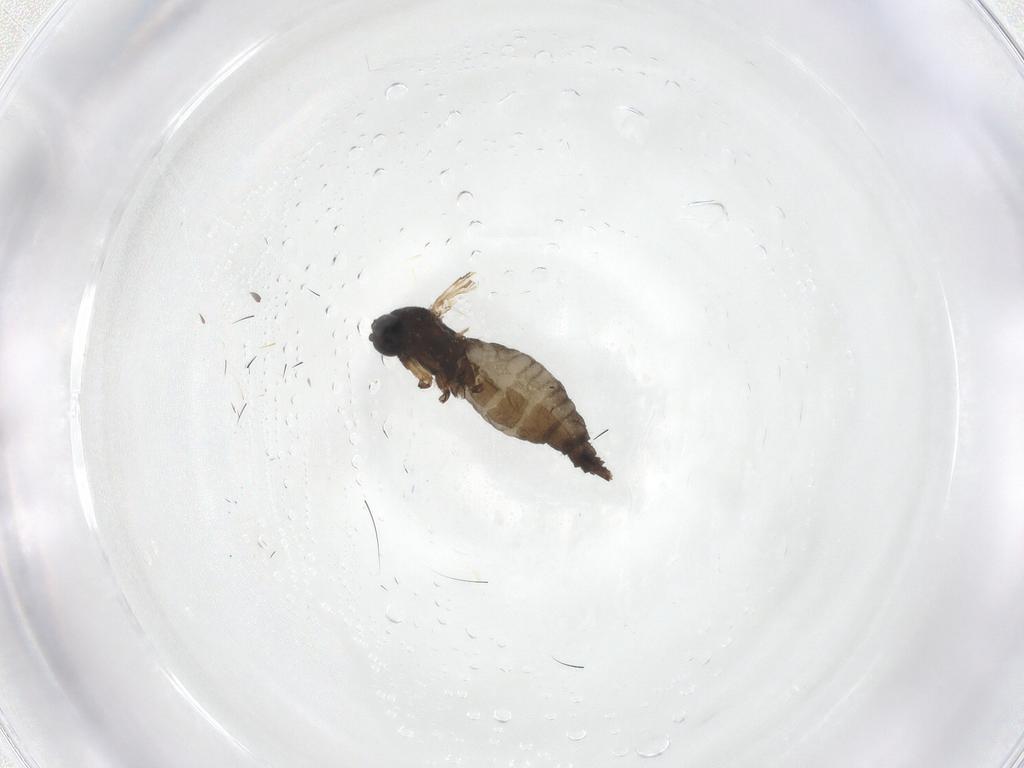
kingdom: Animalia
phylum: Arthropoda
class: Insecta
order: Diptera
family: Sciaridae
